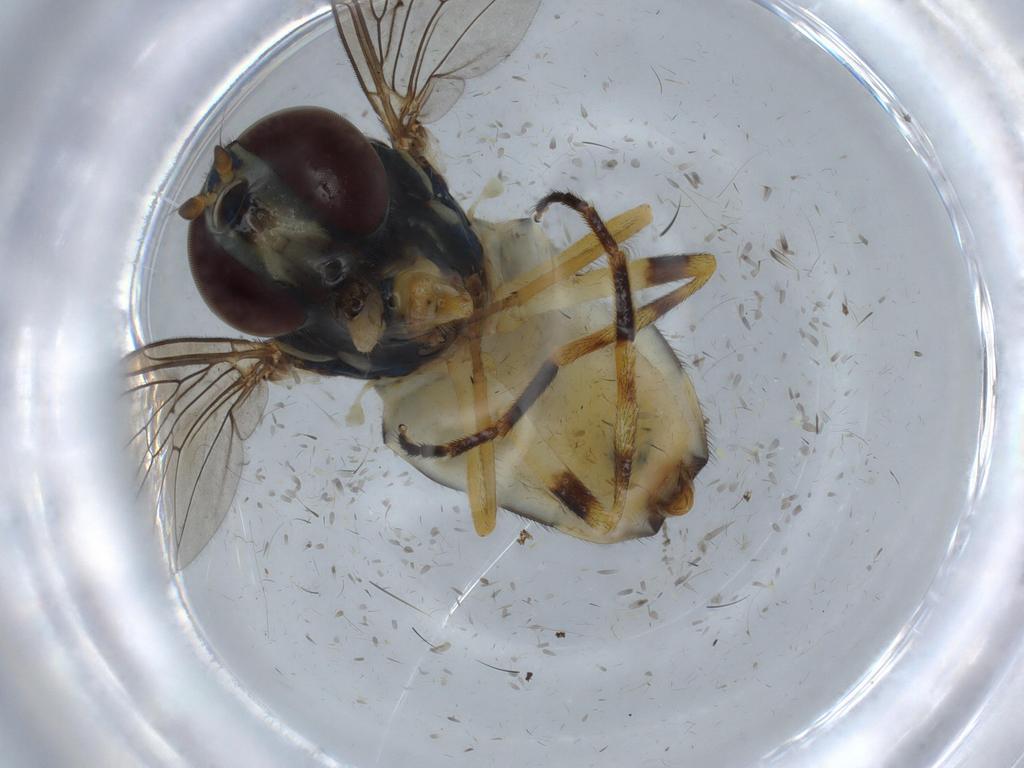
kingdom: Animalia
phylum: Arthropoda
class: Insecta
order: Diptera
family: Syrphidae
